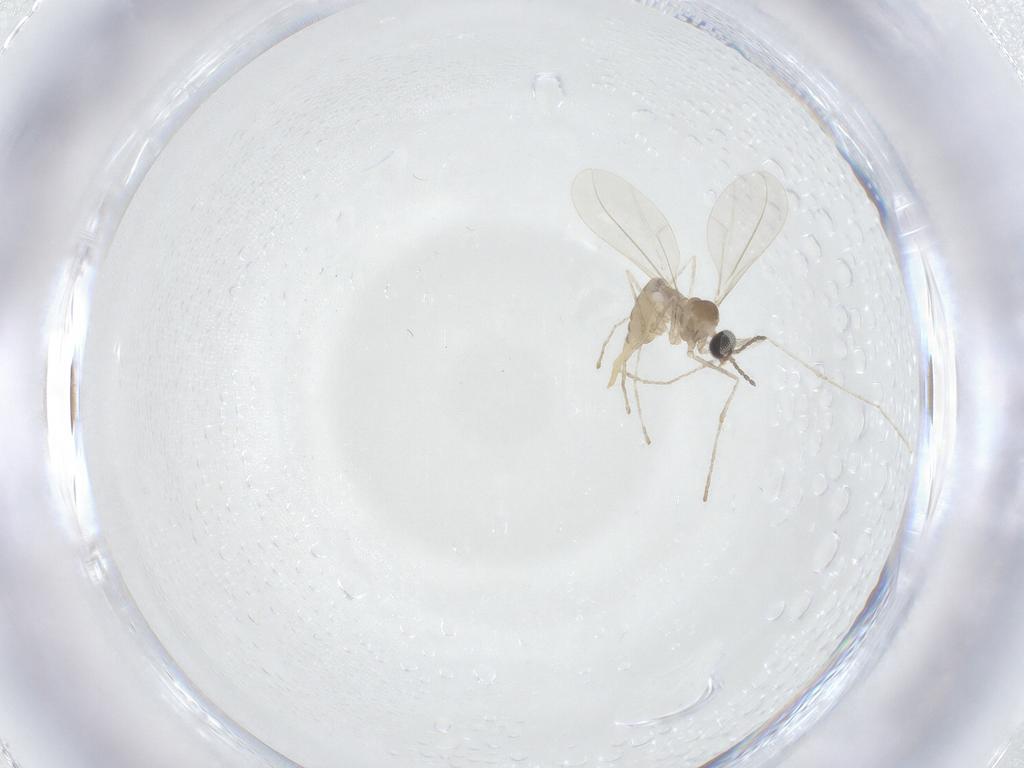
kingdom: Animalia
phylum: Arthropoda
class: Insecta
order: Diptera
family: Cecidomyiidae
